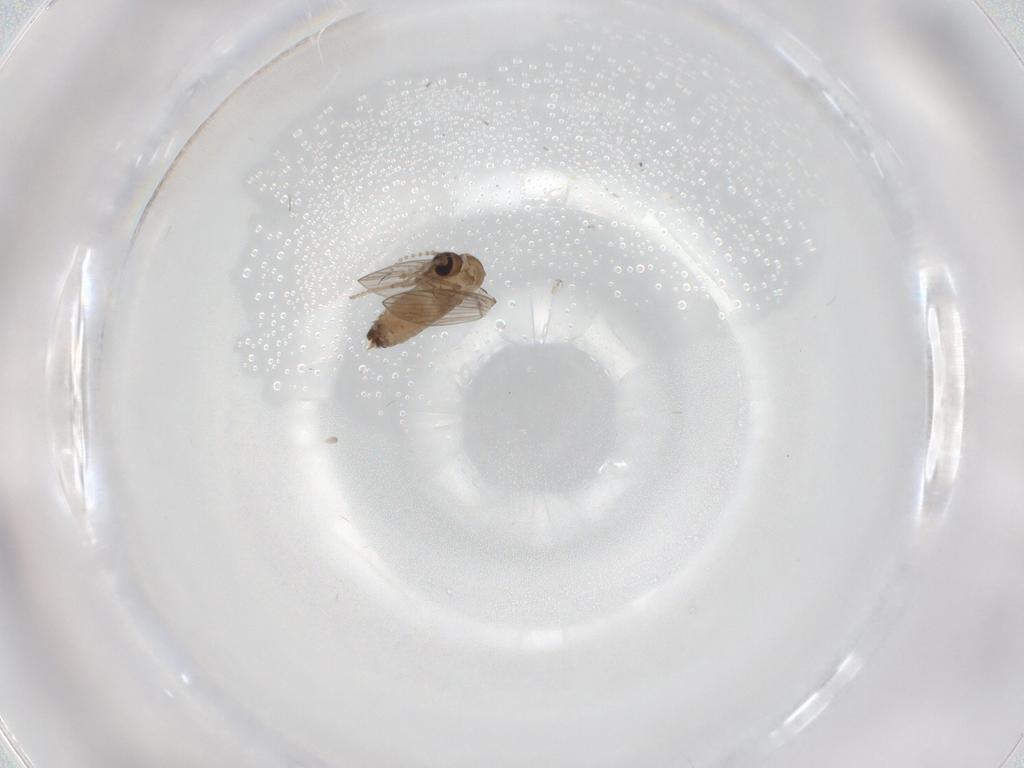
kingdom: Animalia
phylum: Arthropoda
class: Insecta
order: Diptera
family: Psychodidae
